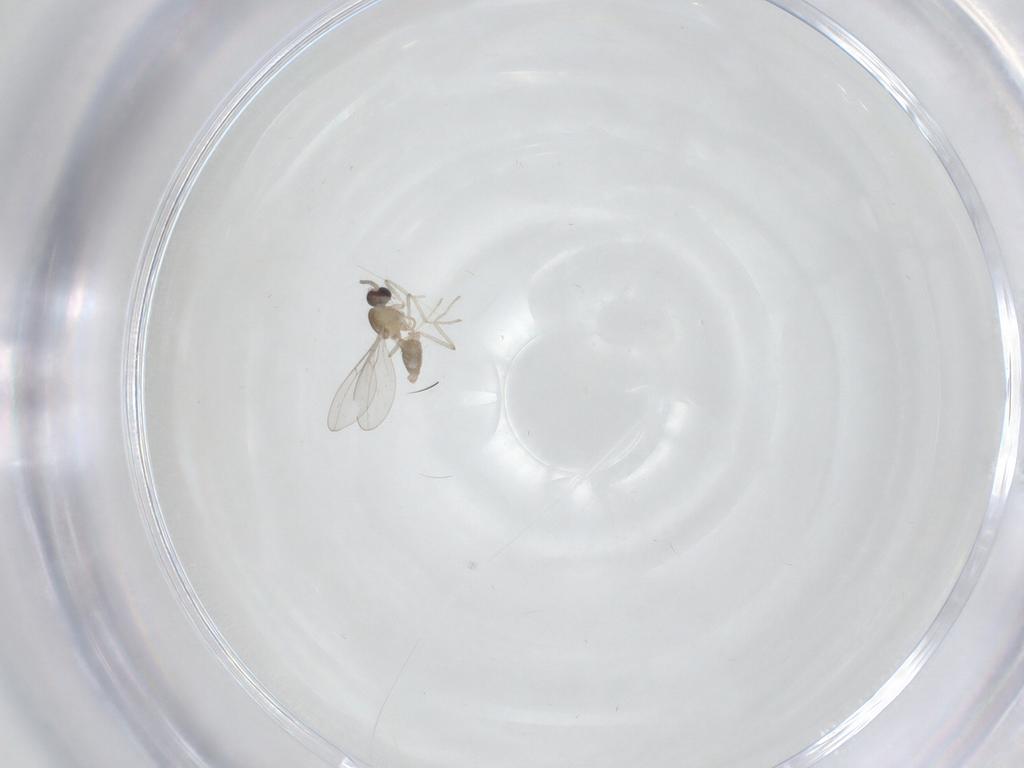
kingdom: Animalia
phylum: Arthropoda
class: Insecta
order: Diptera
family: Cecidomyiidae
